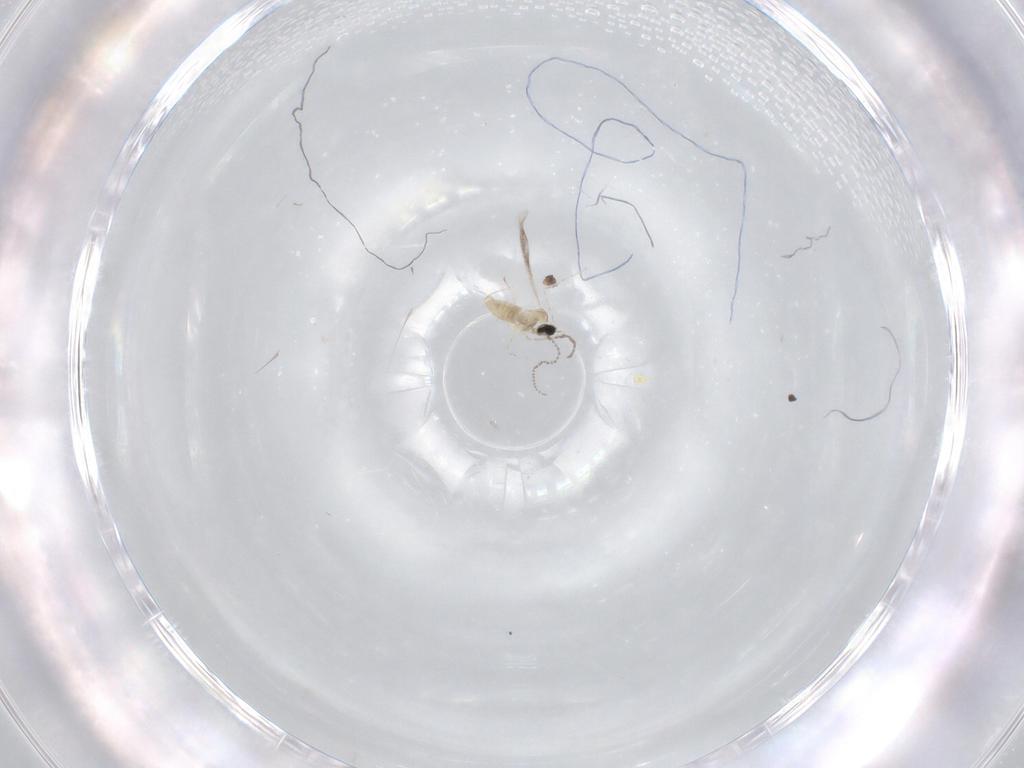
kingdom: Animalia
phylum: Arthropoda
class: Insecta
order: Diptera
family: Cecidomyiidae
